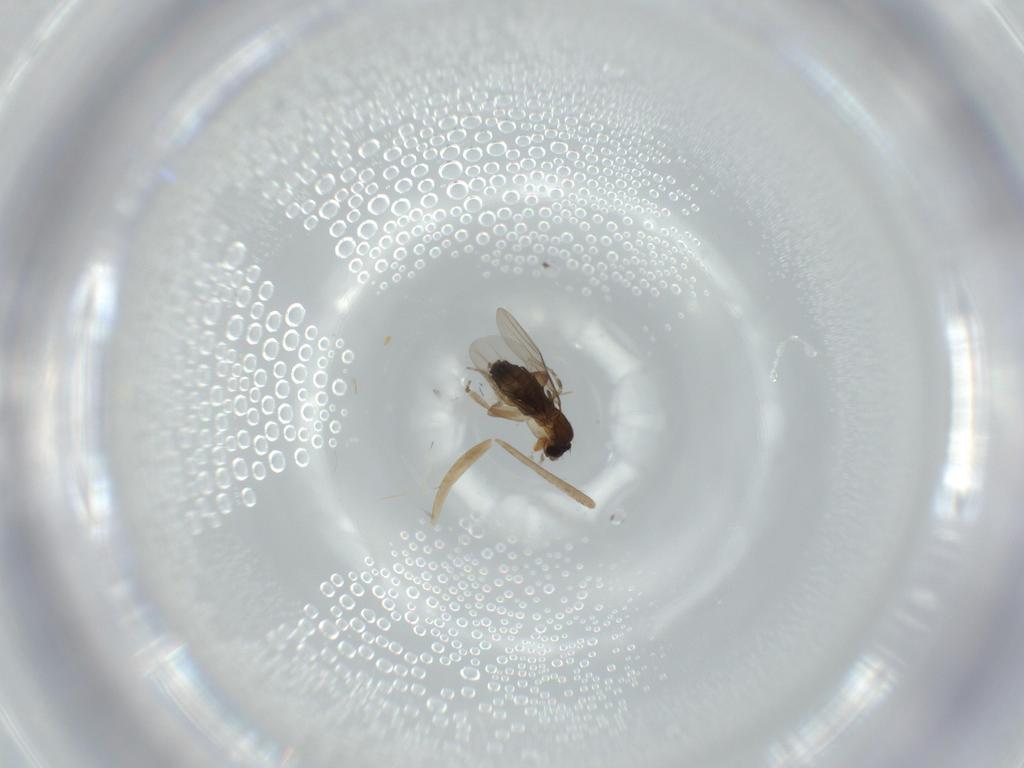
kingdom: Animalia
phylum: Arthropoda
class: Insecta
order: Diptera
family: Phoridae
